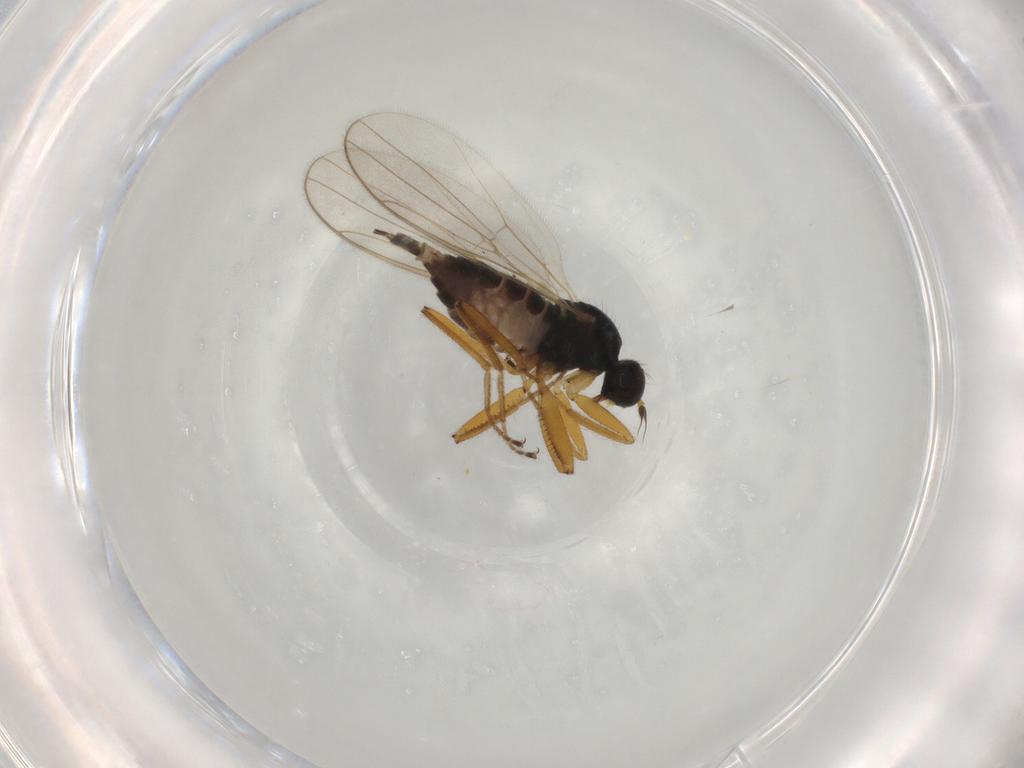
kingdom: Animalia
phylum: Arthropoda
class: Insecta
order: Diptera
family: Hybotidae
